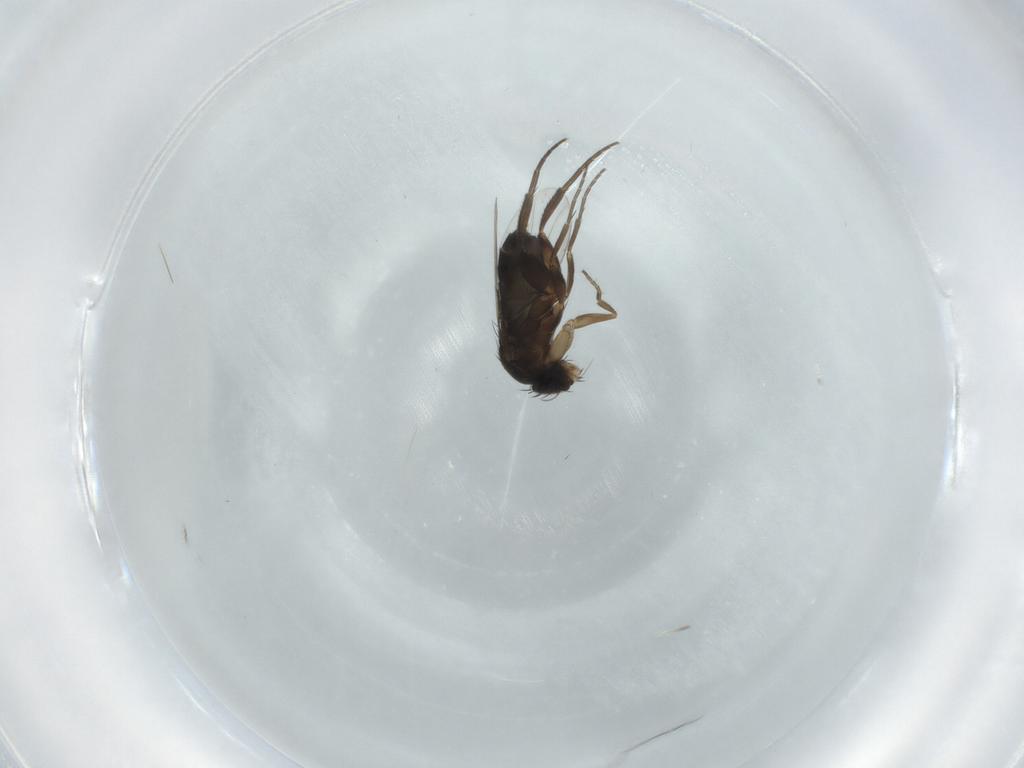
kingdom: Animalia
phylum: Arthropoda
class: Insecta
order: Diptera
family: Phoridae
